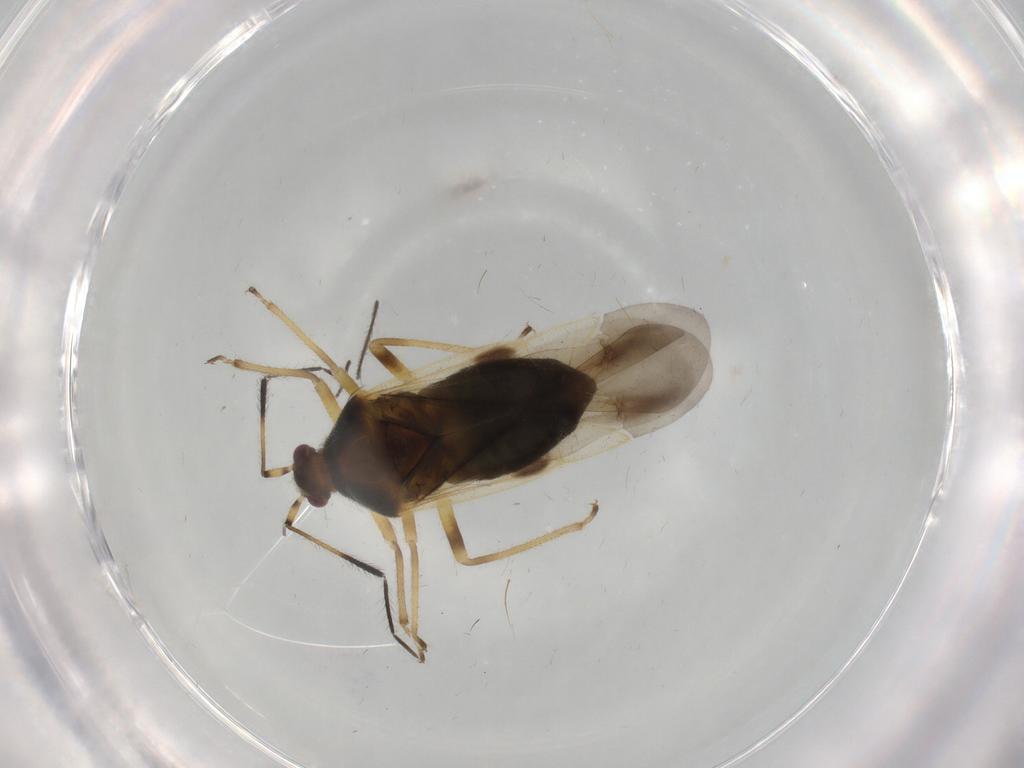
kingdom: Animalia
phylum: Arthropoda
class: Insecta
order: Hemiptera
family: Miridae
